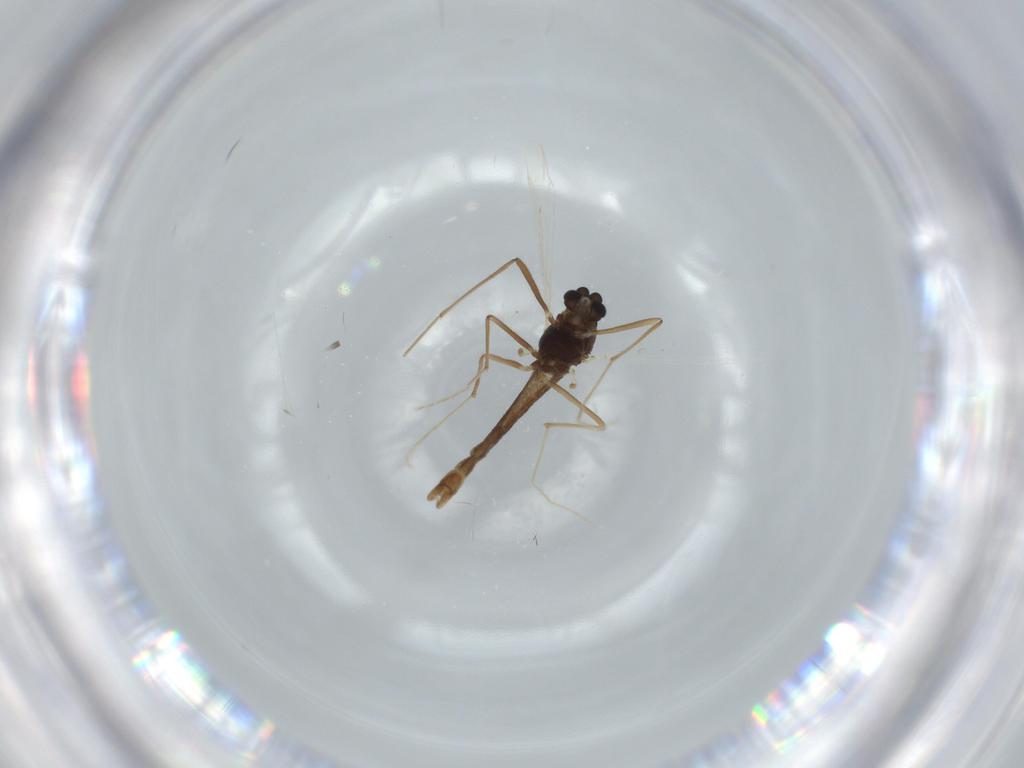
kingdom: Animalia
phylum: Arthropoda
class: Insecta
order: Diptera
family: Chironomidae
